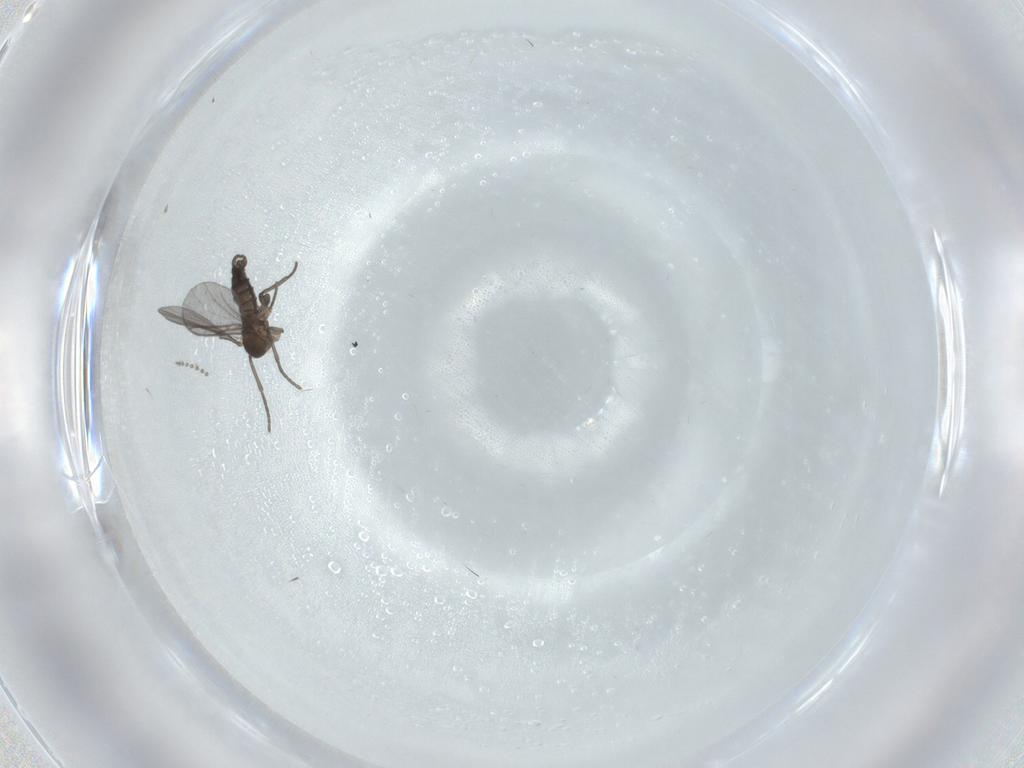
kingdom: Animalia
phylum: Arthropoda
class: Insecta
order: Diptera
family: Sciaridae
